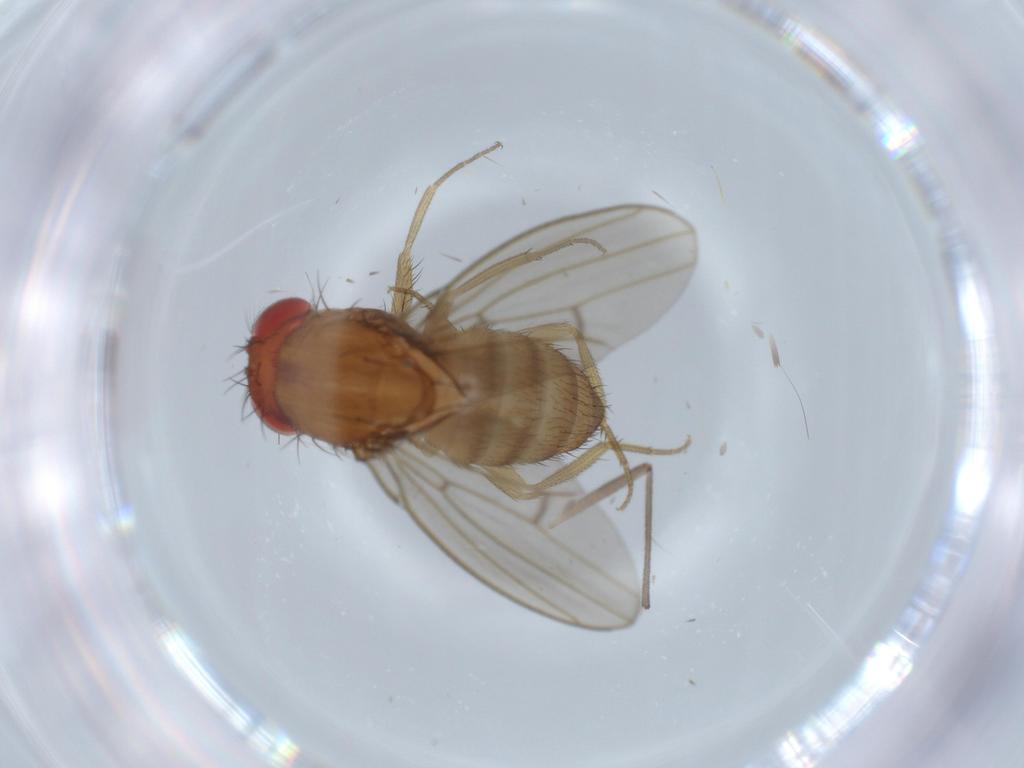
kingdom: Animalia
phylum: Arthropoda
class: Insecta
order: Diptera
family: Drosophilidae
